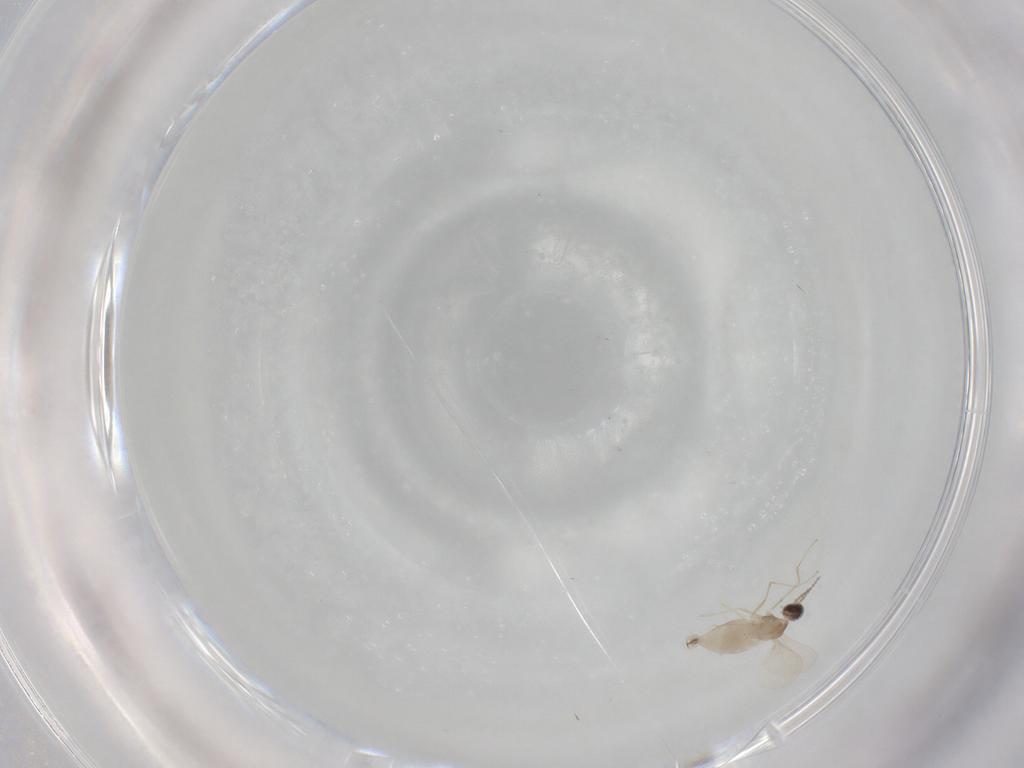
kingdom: Animalia
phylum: Arthropoda
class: Insecta
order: Diptera
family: Cecidomyiidae
